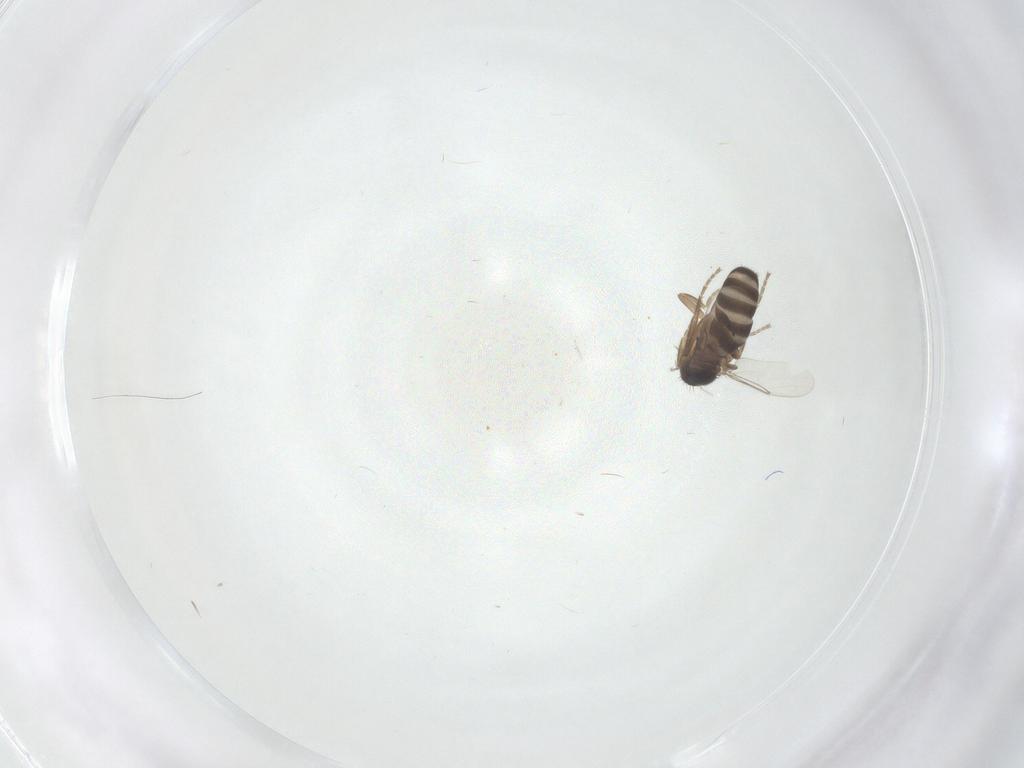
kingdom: Animalia
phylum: Arthropoda
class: Insecta
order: Diptera
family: Phoridae
